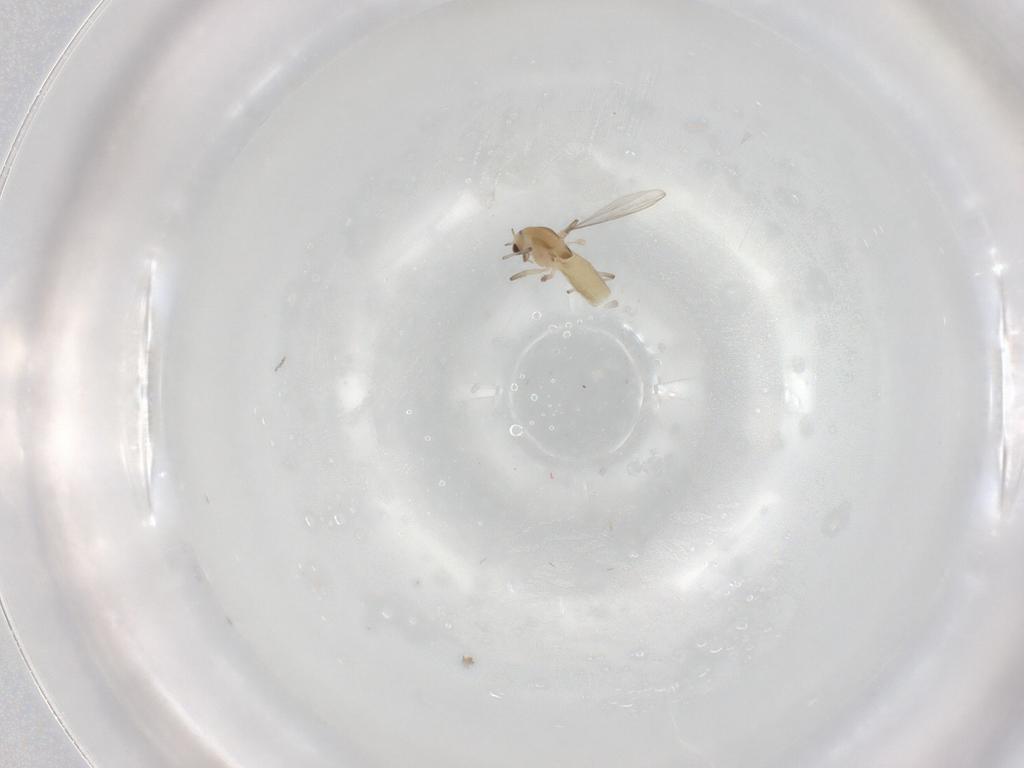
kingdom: Animalia
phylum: Arthropoda
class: Insecta
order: Diptera
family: Chironomidae
